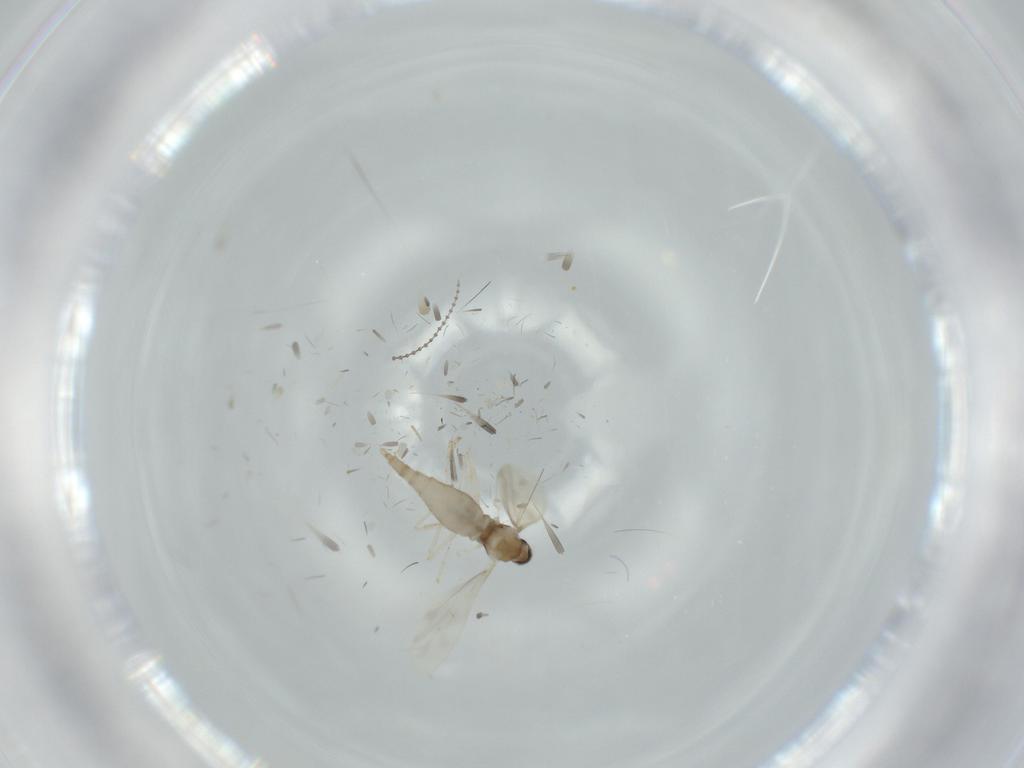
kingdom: Animalia
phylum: Arthropoda
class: Insecta
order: Diptera
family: Cecidomyiidae
